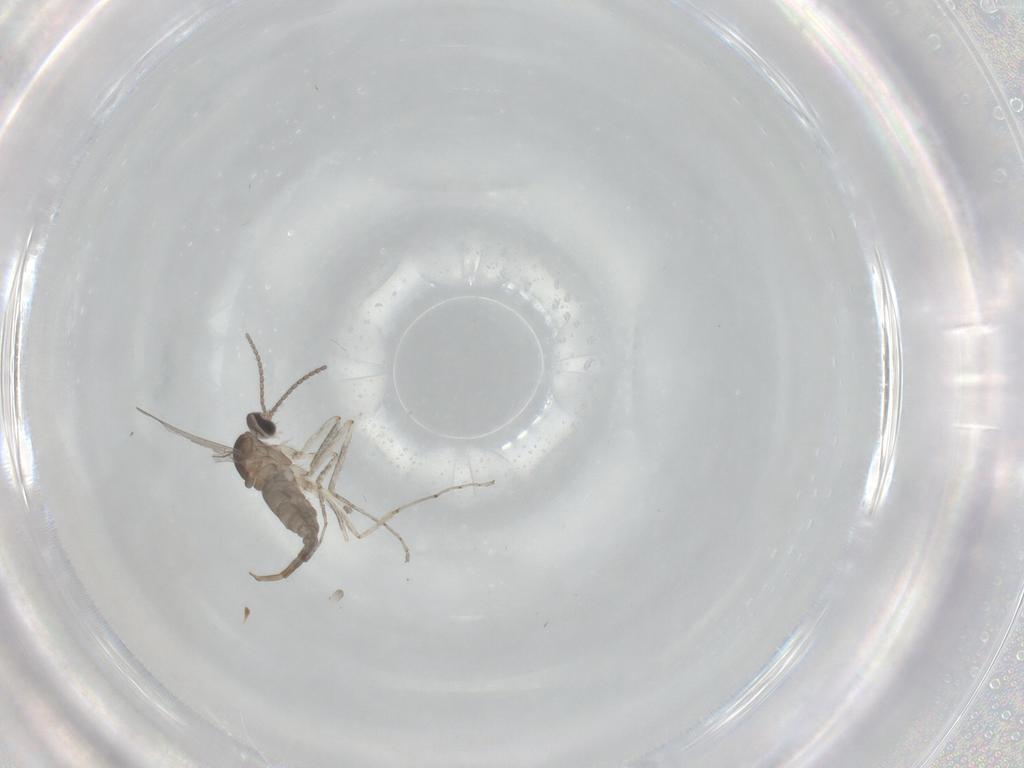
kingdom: Animalia
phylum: Arthropoda
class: Insecta
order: Diptera
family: Cecidomyiidae
